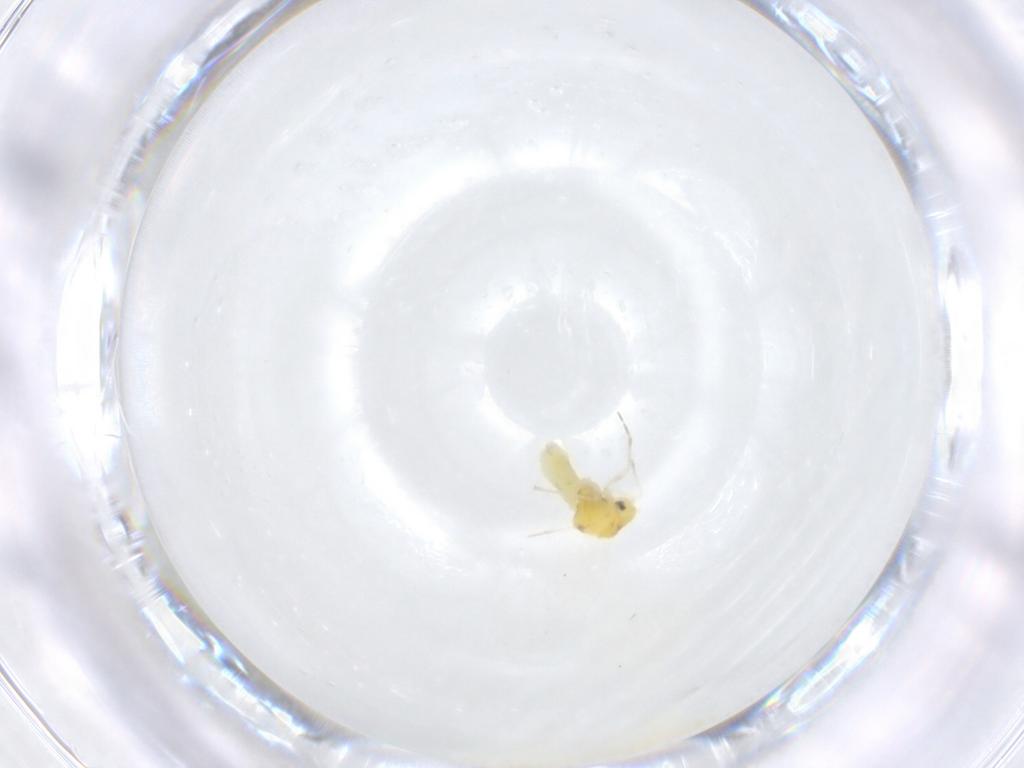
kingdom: Animalia
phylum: Arthropoda
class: Insecta
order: Hemiptera
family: Aleyrodidae
